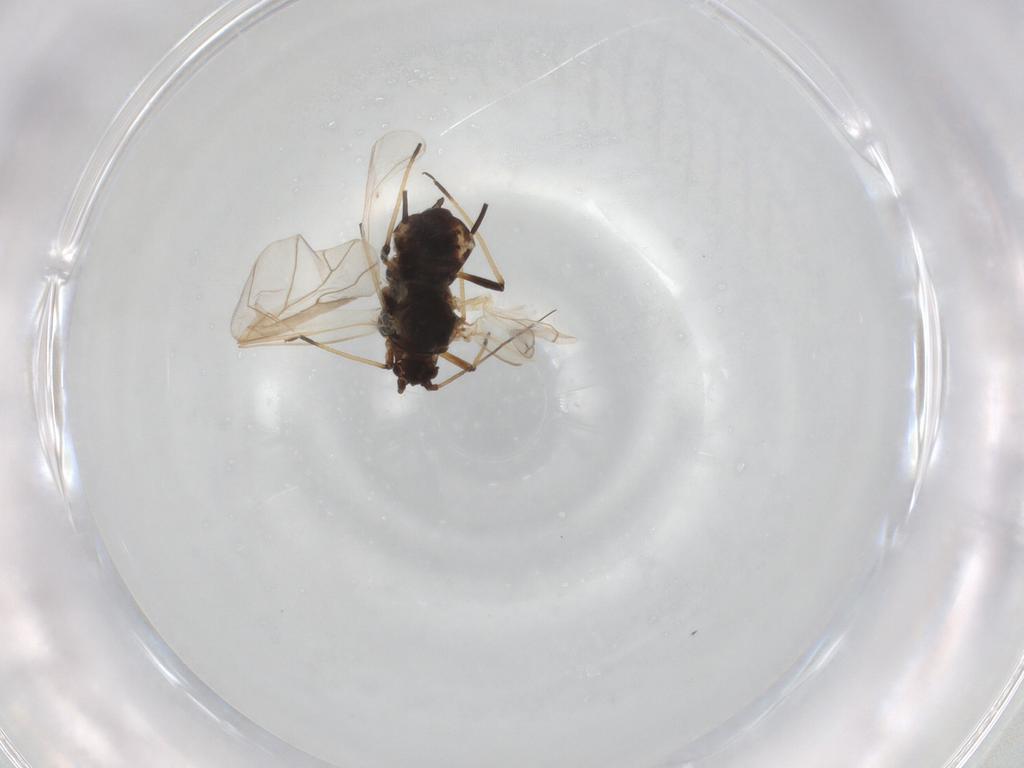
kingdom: Animalia
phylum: Arthropoda
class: Insecta
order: Hemiptera
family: Aphididae
